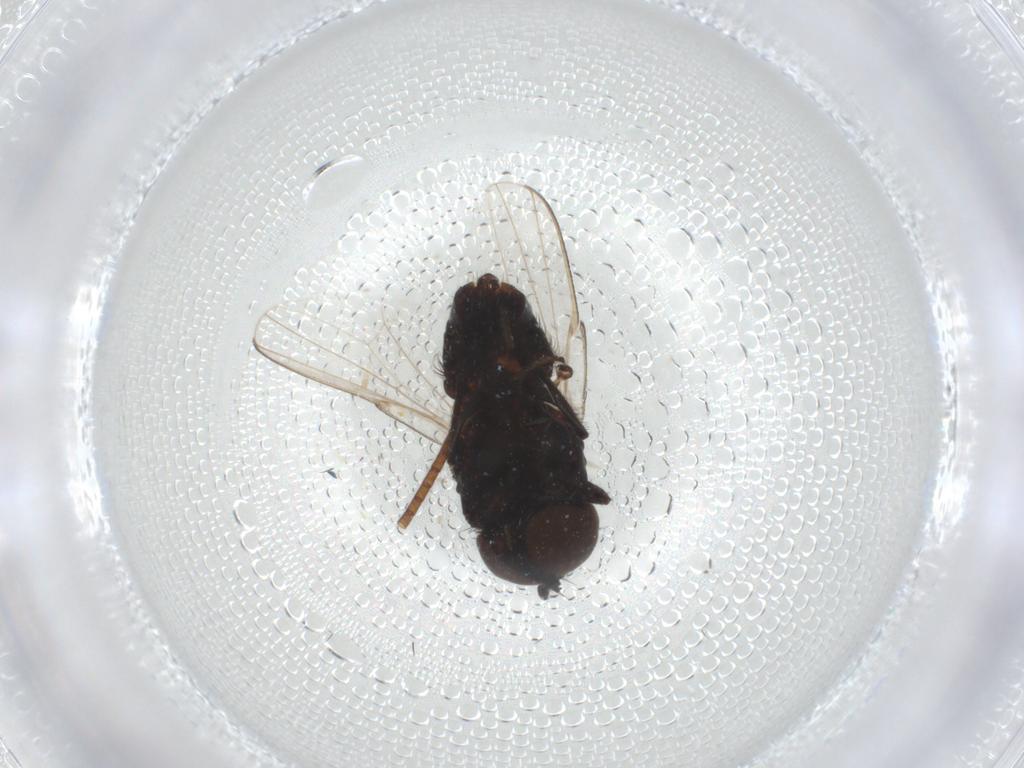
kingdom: Animalia
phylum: Arthropoda
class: Insecta
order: Diptera
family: Milichiidae
